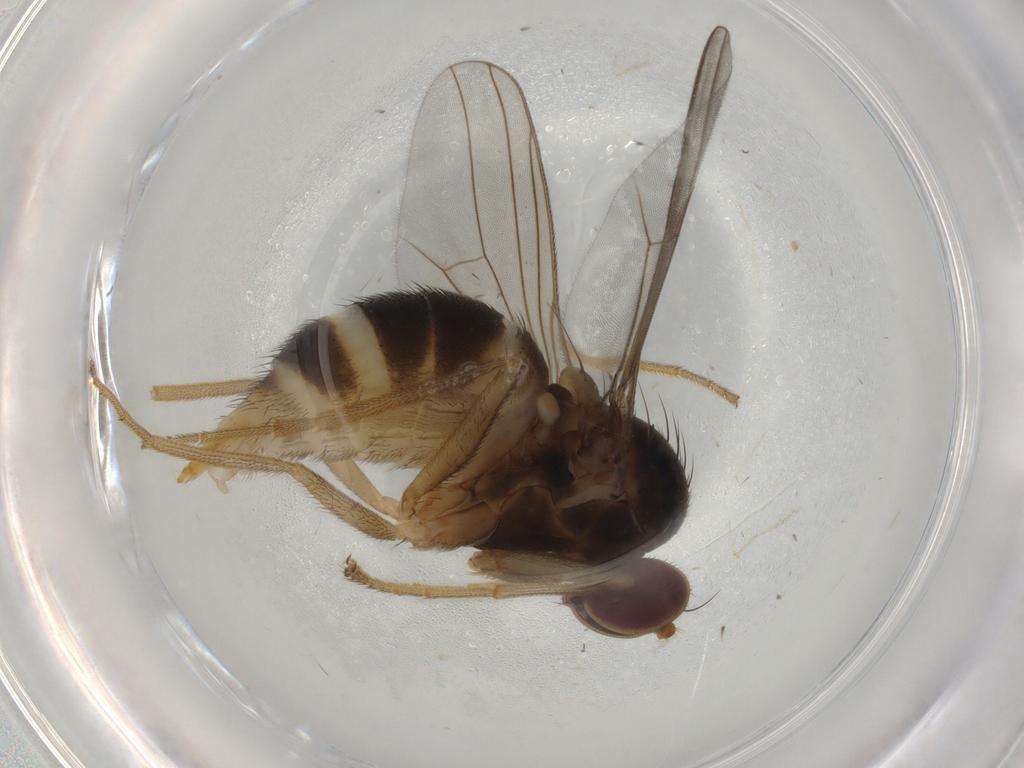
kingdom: Animalia
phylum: Arthropoda
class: Insecta
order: Diptera
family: Dolichopodidae
